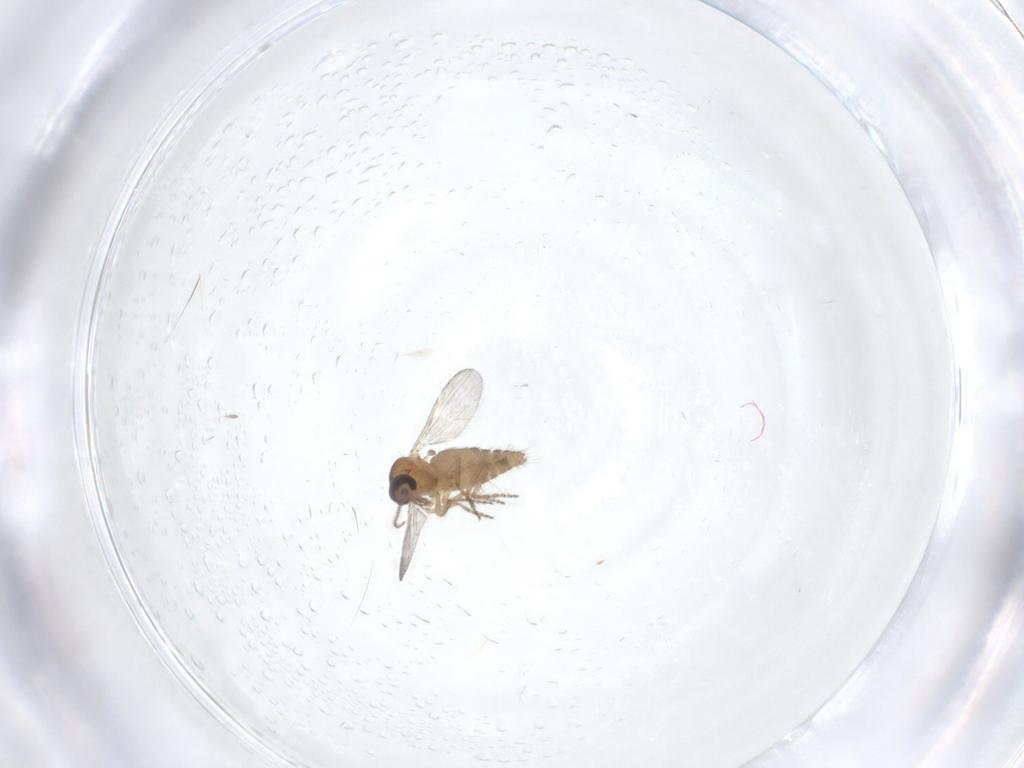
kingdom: Animalia
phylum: Arthropoda
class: Insecta
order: Diptera
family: Ceratopogonidae
